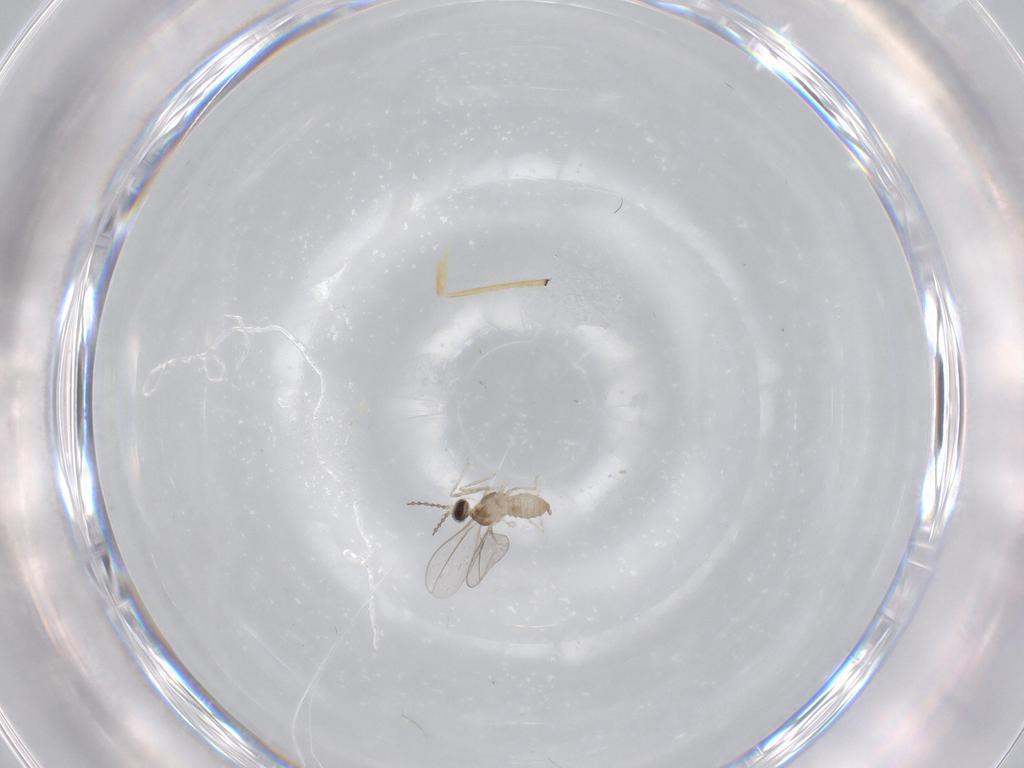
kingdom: Animalia
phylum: Arthropoda
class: Insecta
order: Diptera
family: Cecidomyiidae
